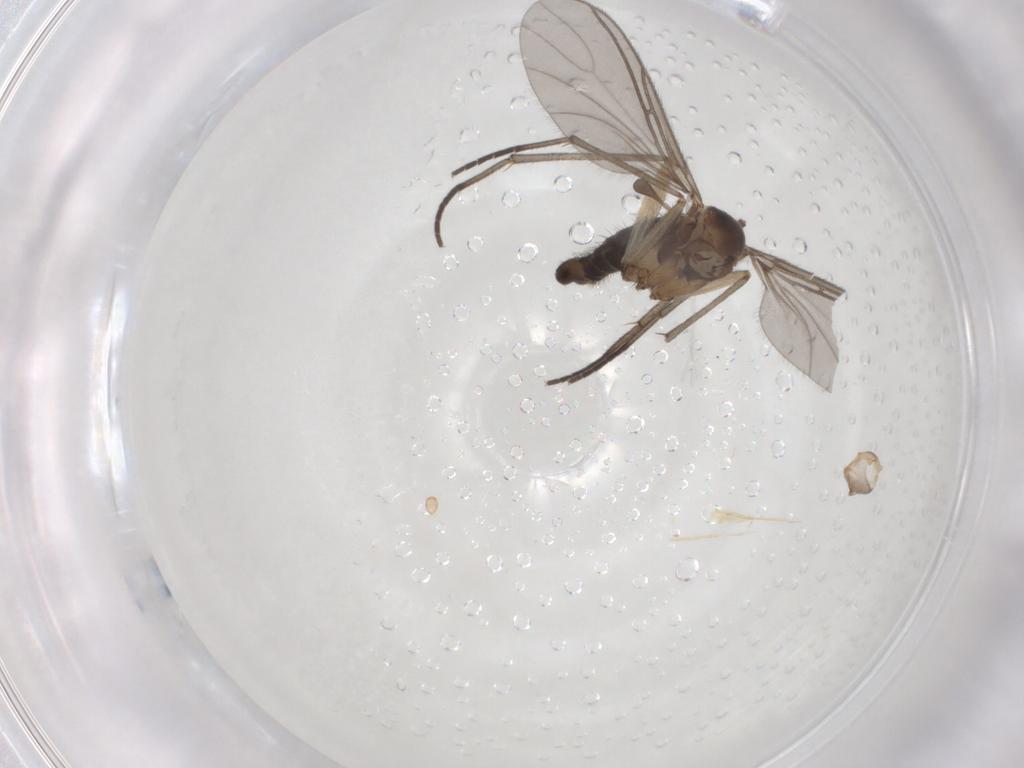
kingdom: Animalia
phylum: Arthropoda
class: Insecta
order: Diptera
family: Sciaridae
